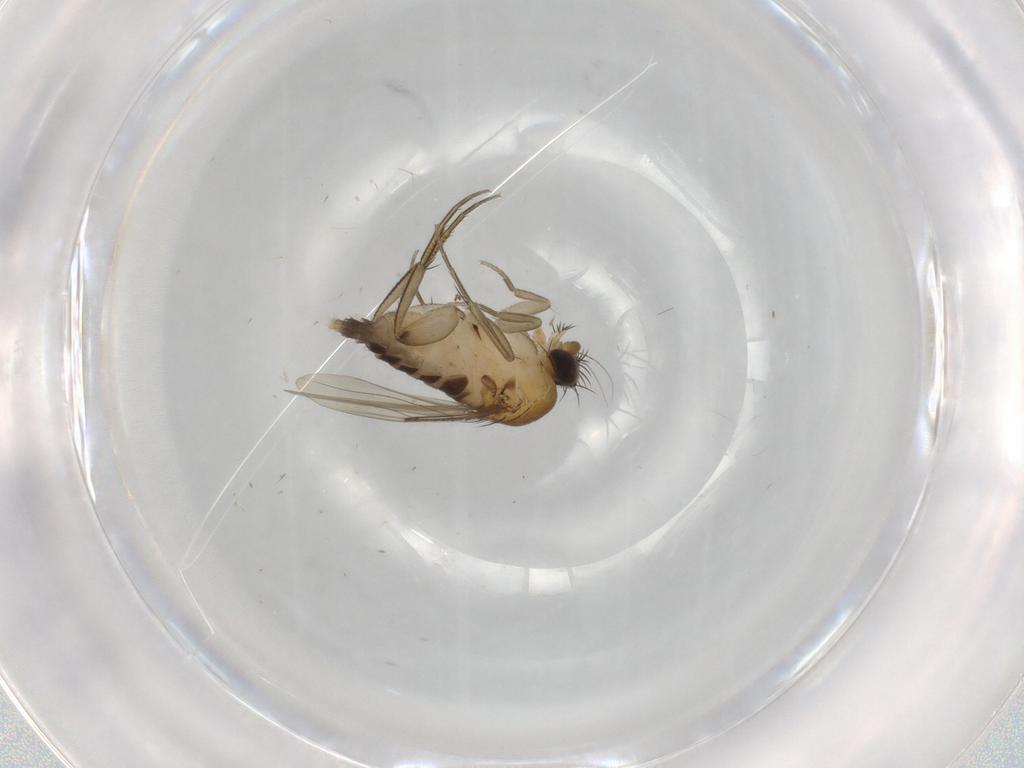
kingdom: Animalia
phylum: Arthropoda
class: Insecta
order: Diptera
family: Phoridae
